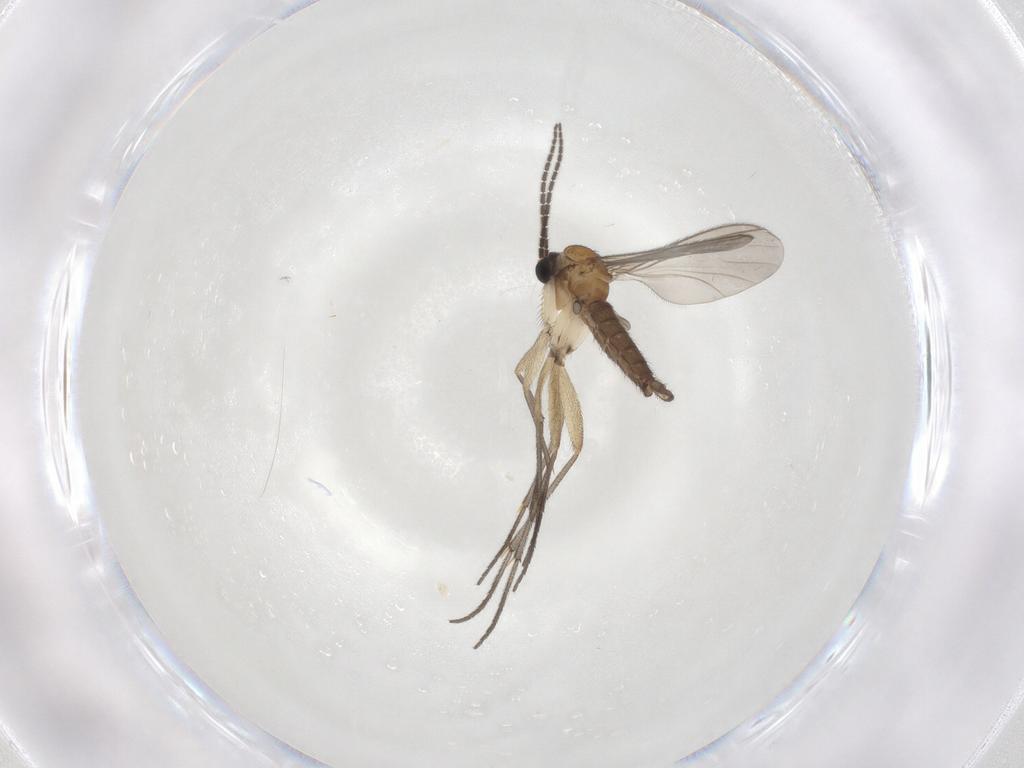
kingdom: Animalia
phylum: Arthropoda
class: Insecta
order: Diptera
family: Sciaridae
